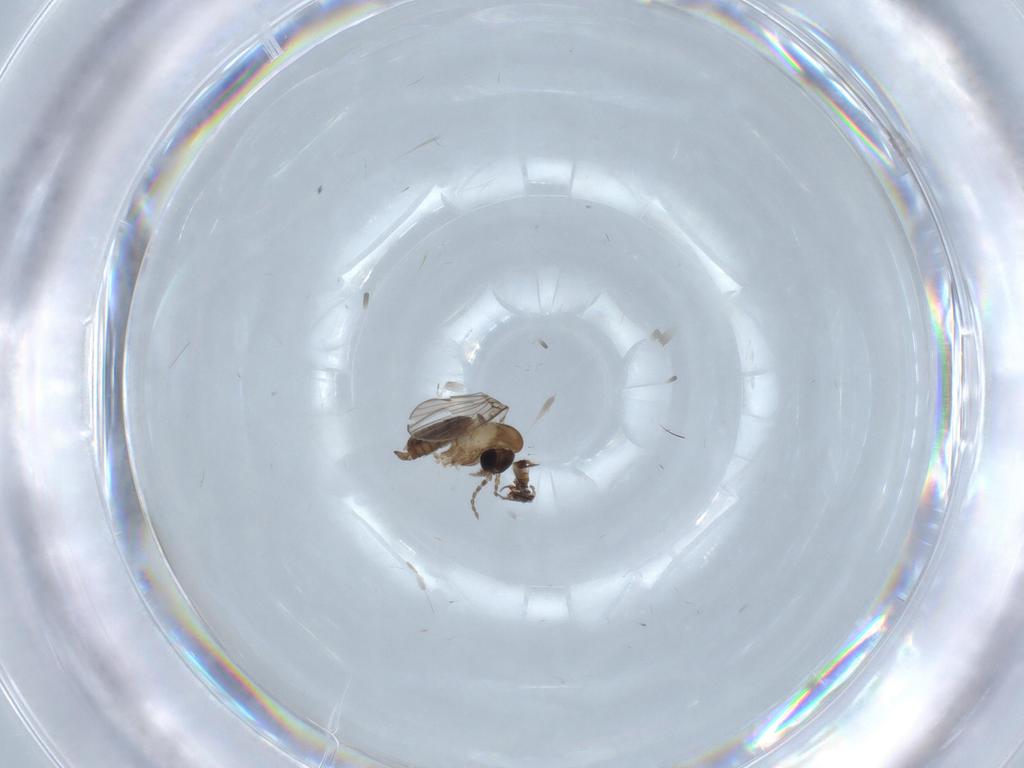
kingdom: Animalia
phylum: Arthropoda
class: Insecta
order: Diptera
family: Dolichopodidae
